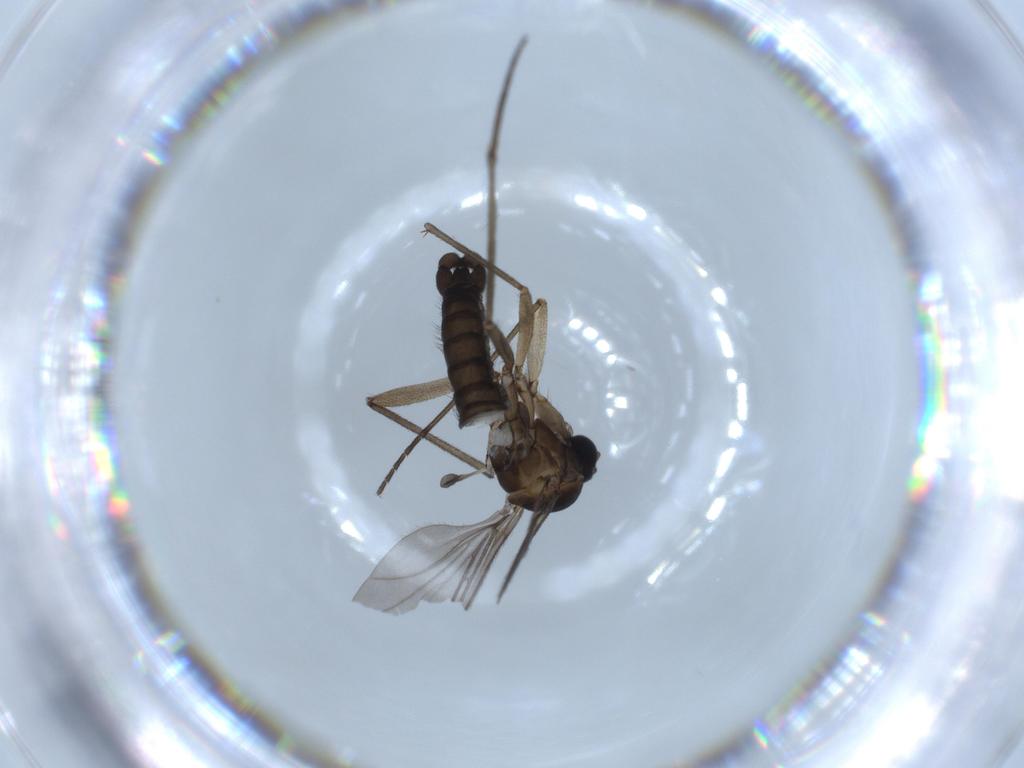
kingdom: Animalia
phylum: Arthropoda
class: Insecta
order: Diptera
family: Sciaridae
